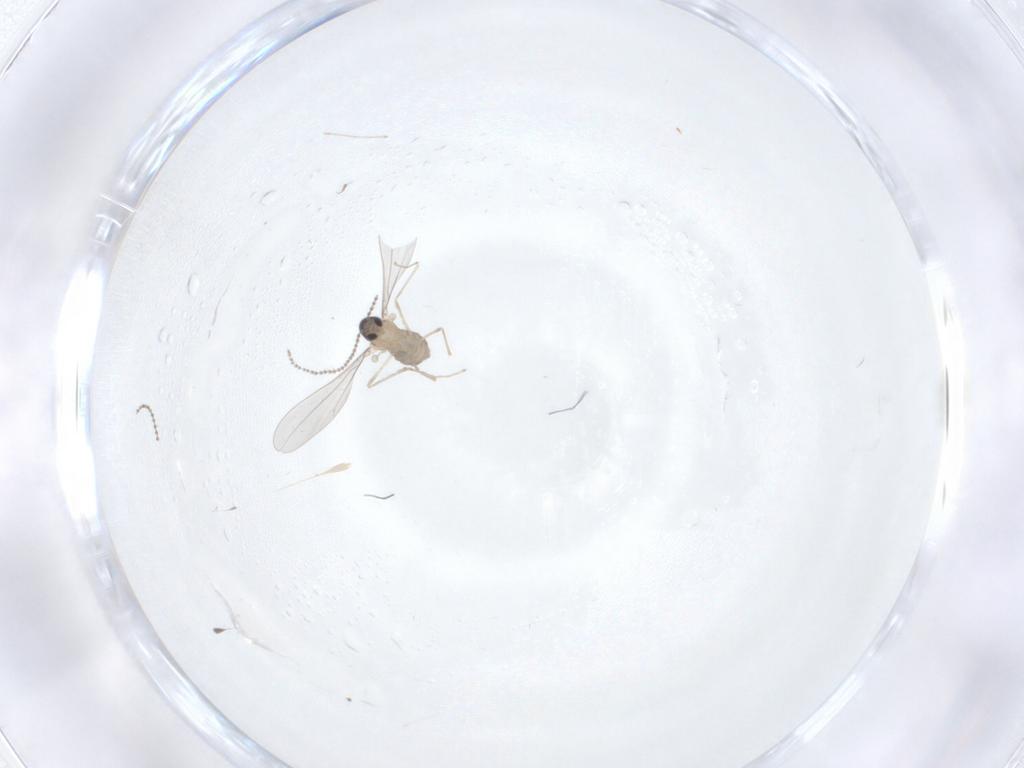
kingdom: Animalia
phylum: Arthropoda
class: Insecta
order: Diptera
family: Cecidomyiidae
